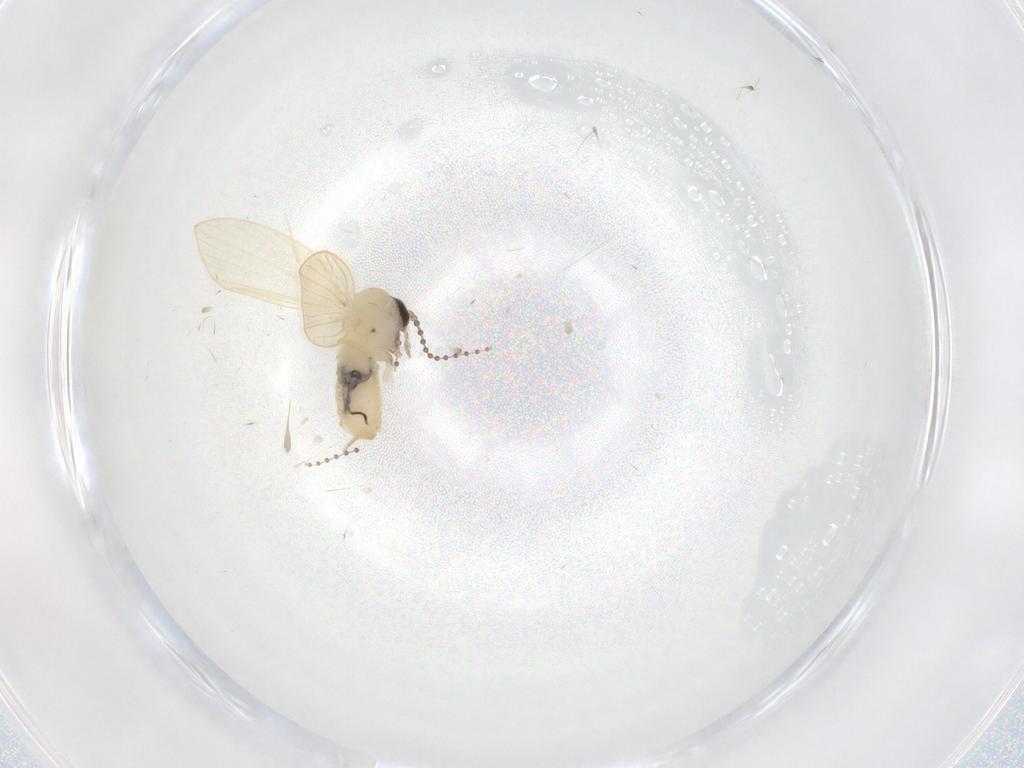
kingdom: Animalia
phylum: Arthropoda
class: Insecta
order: Diptera
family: Psychodidae
